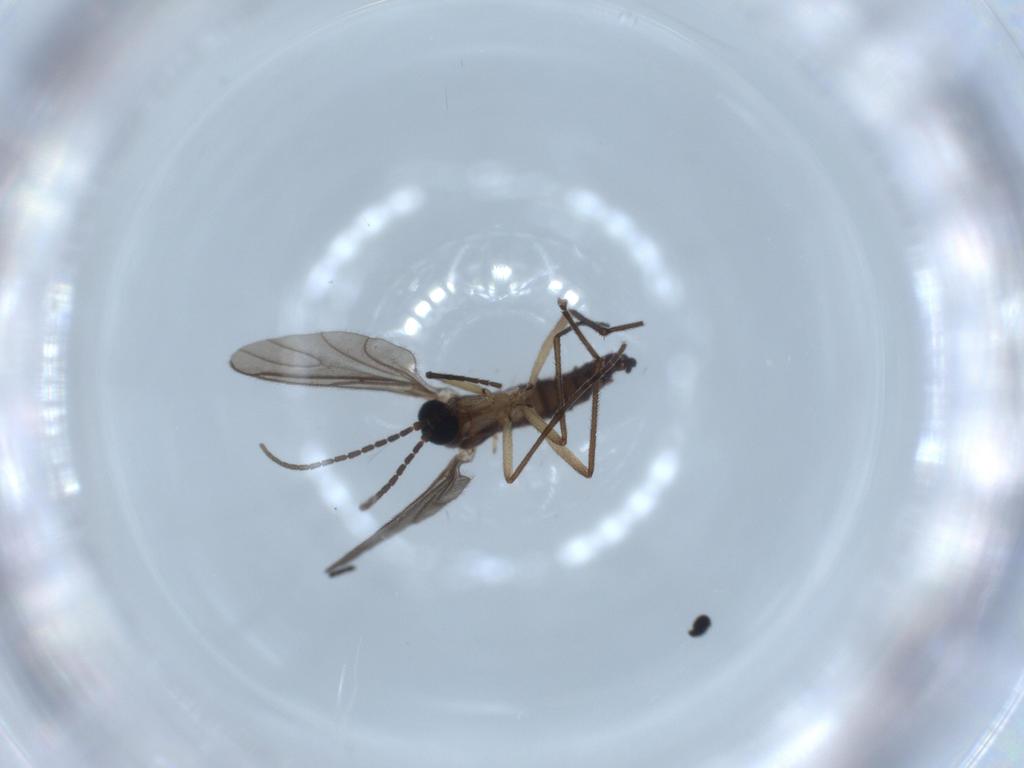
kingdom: Animalia
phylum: Arthropoda
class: Insecta
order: Diptera
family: Sciaridae
